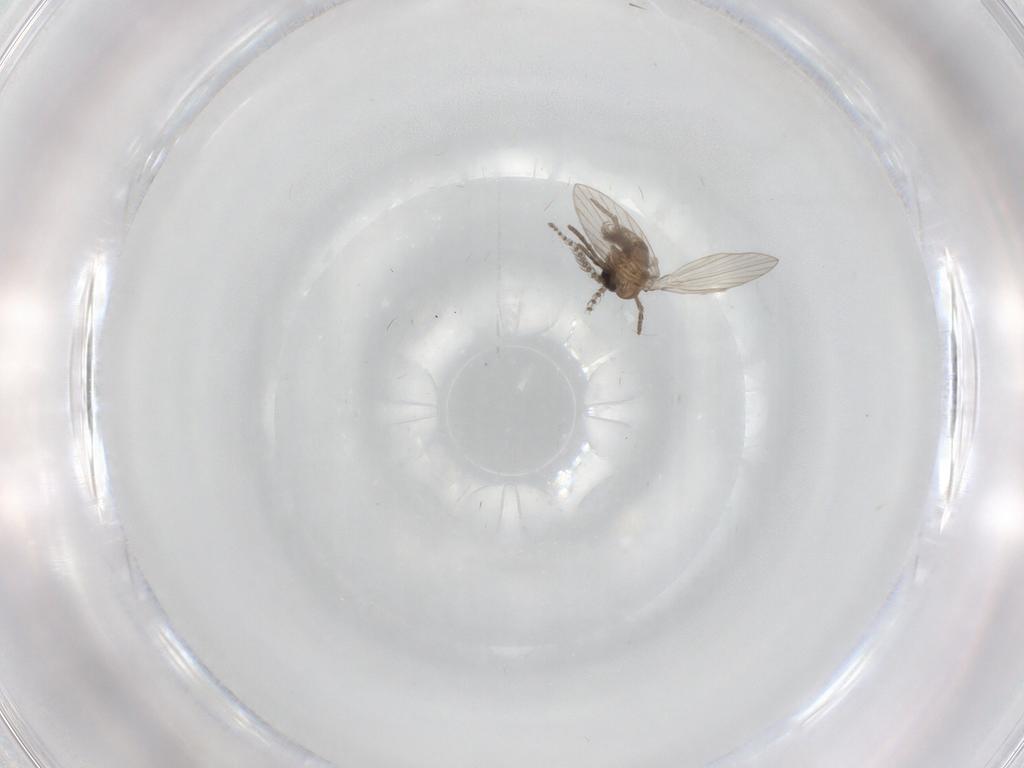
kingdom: Animalia
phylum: Arthropoda
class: Insecta
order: Diptera
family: Psychodidae
